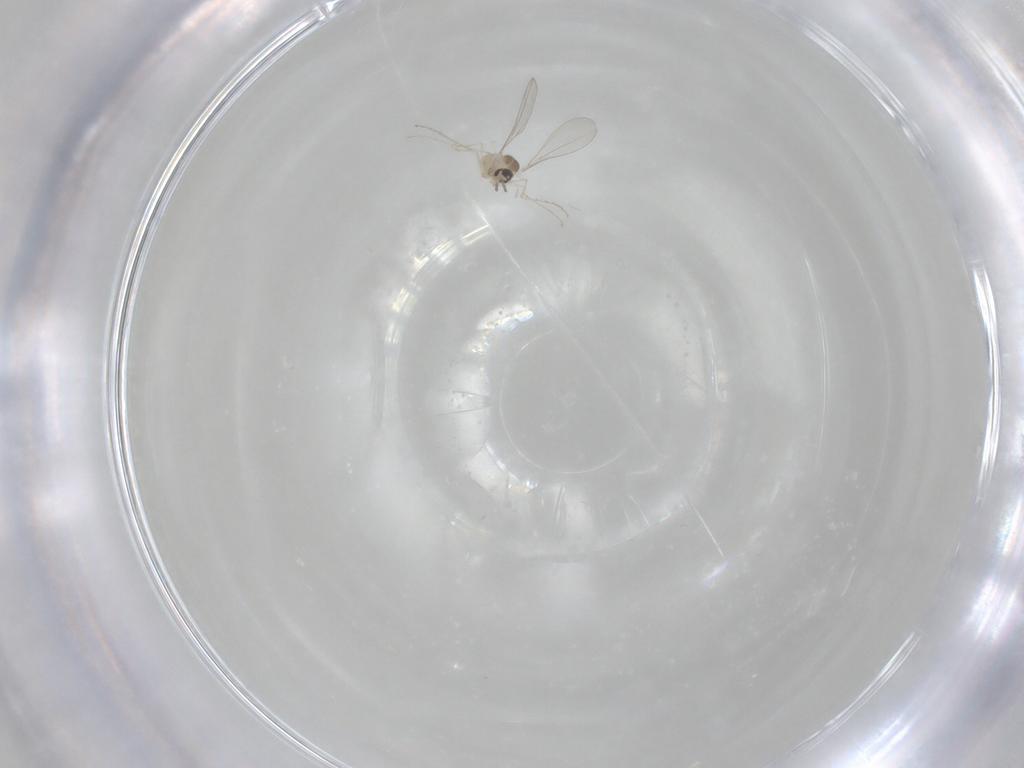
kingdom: Animalia
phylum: Arthropoda
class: Insecta
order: Diptera
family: Cecidomyiidae
